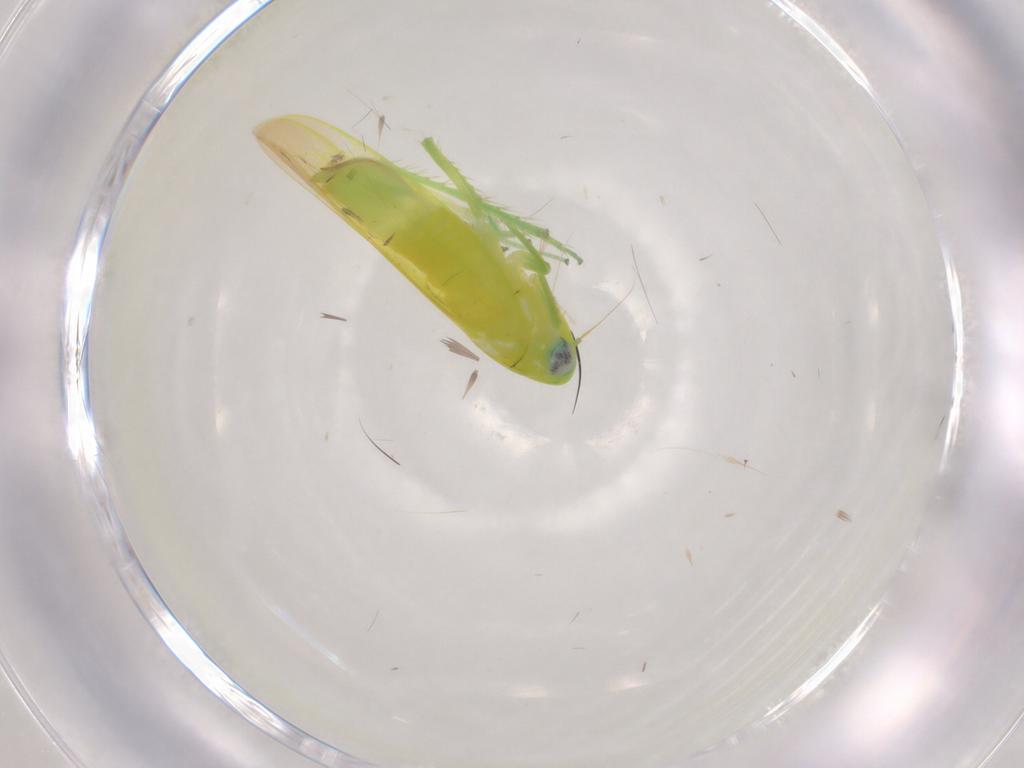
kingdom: Animalia
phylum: Arthropoda
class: Insecta
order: Hemiptera
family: Cicadellidae
